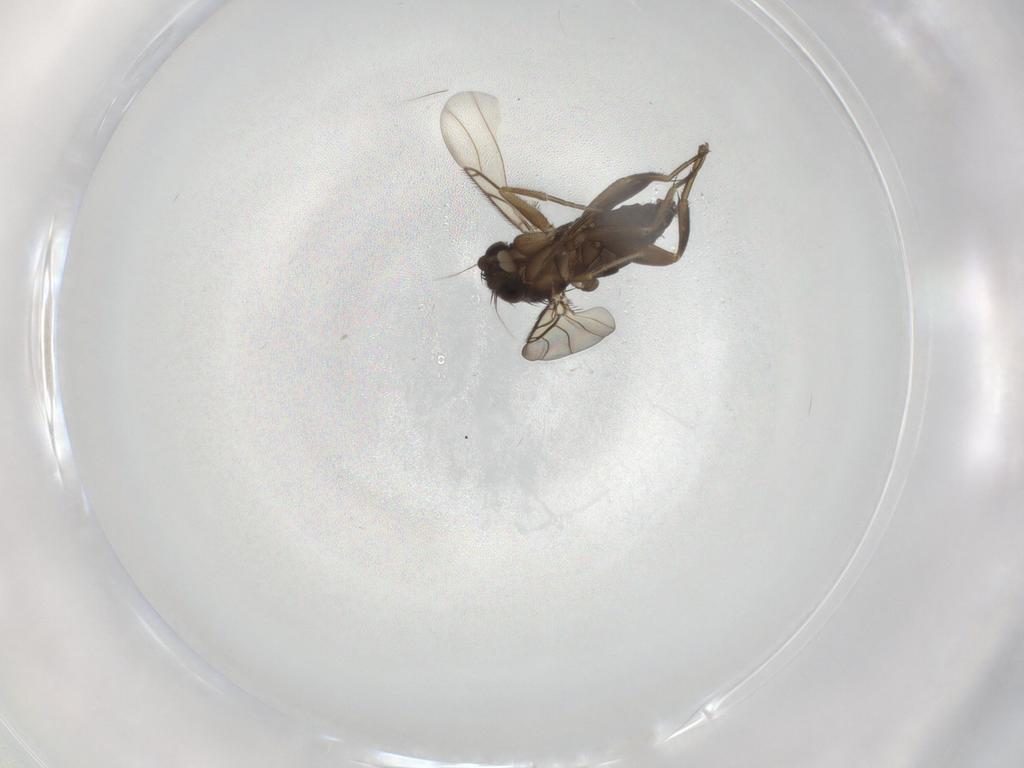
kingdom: Animalia
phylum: Arthropoda
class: Insecta
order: Diptera
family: Phoridae
